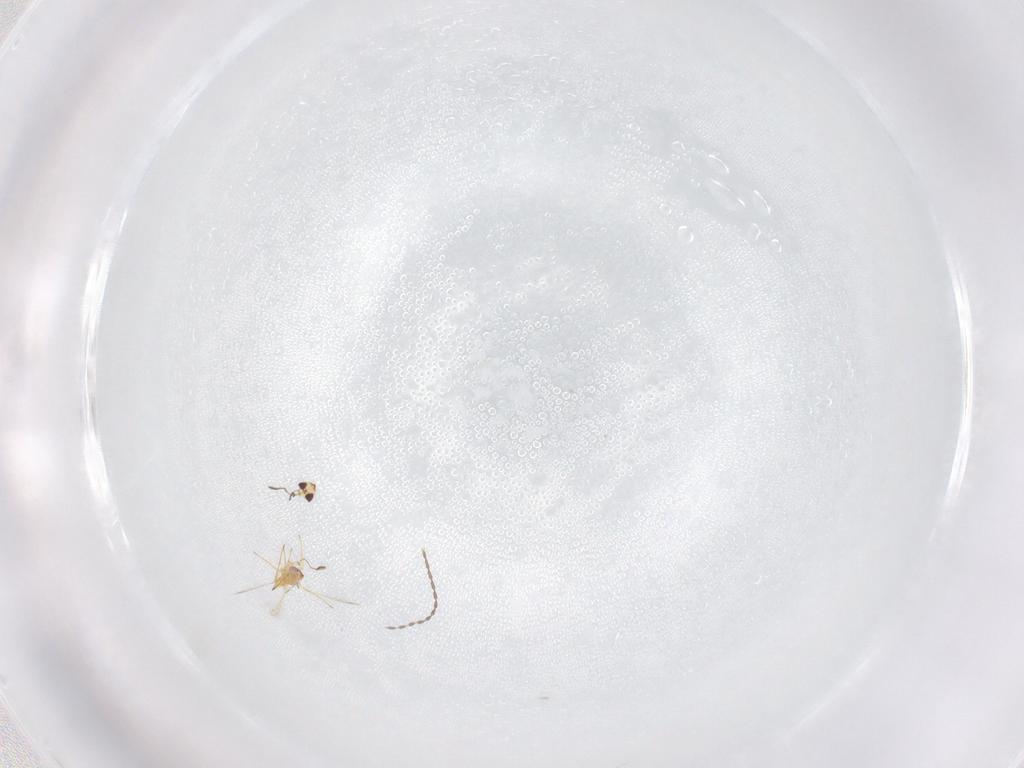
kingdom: Animalia
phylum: Arthropoda
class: Insecta
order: Hymenoptera
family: Mymaridae
